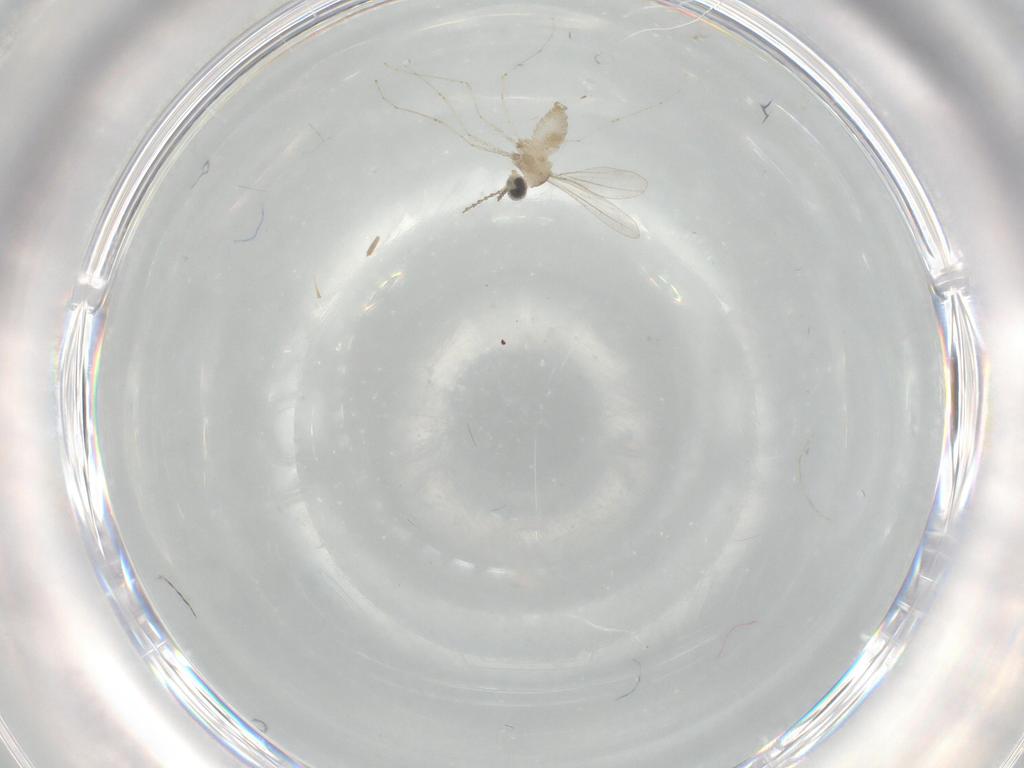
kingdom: Animalia
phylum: Arthropoda
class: Insecta
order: Diptera
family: Cecidomyiidae
